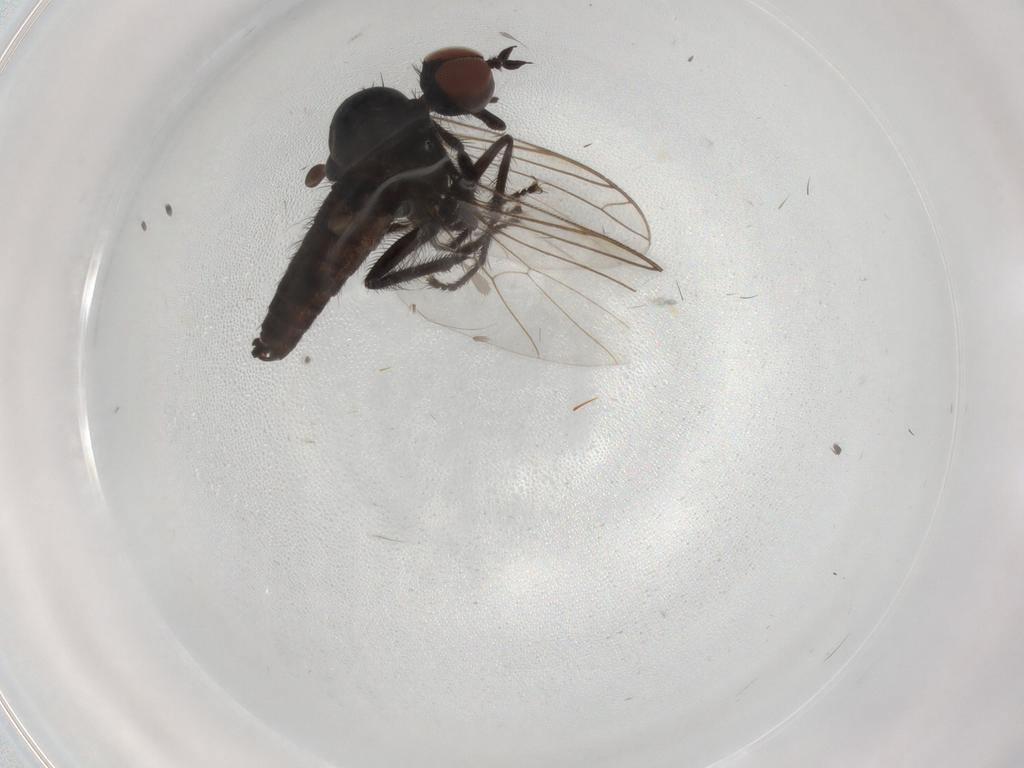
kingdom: Animalia
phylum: Arthropoda
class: Insecta
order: Diptera
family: Empididae
